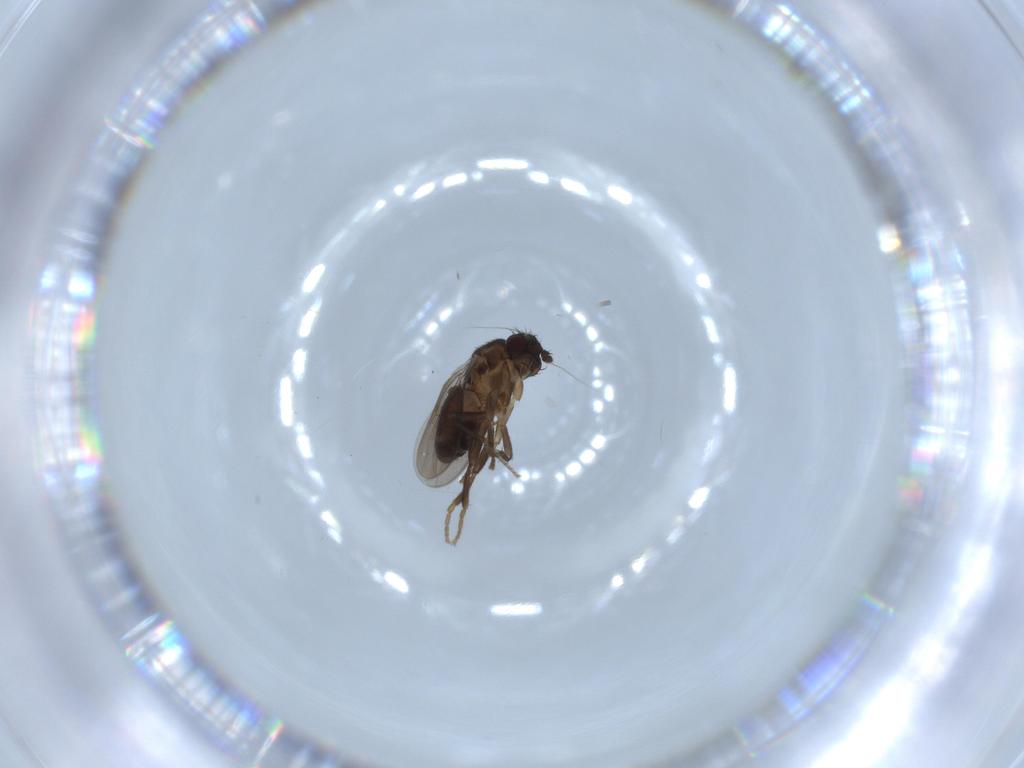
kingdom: Animalia
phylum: Arthropoda
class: Insecta
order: Diptera
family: Sphaeroceridae
